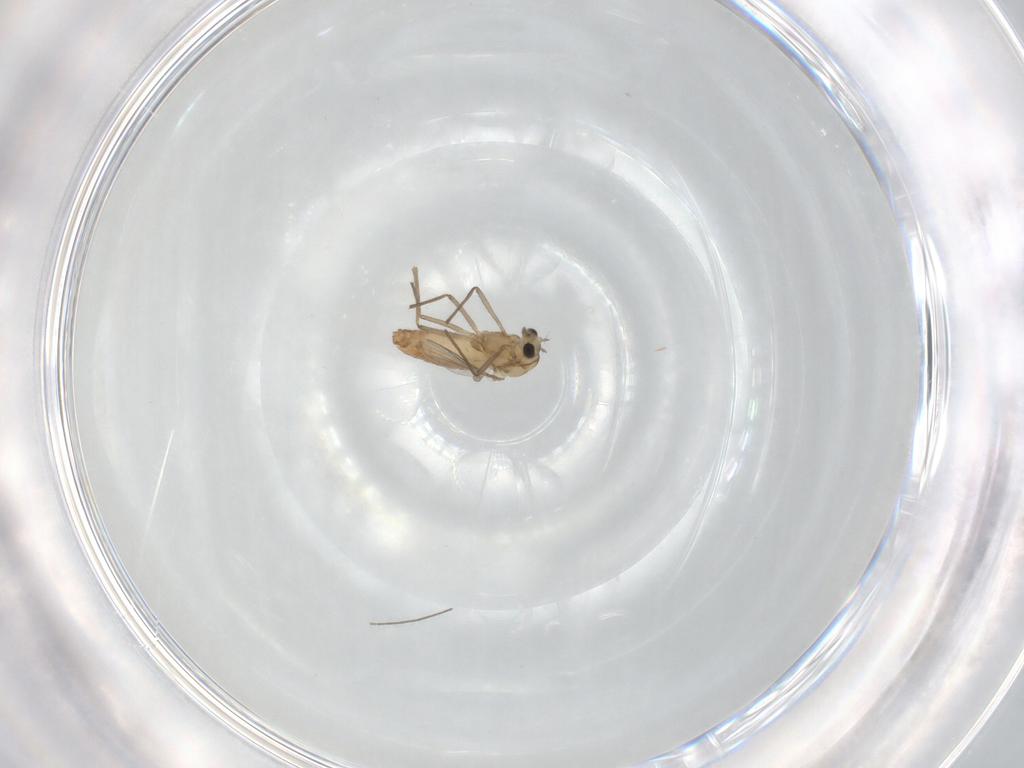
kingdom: Animalia
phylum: Arthropoda
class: Insecta
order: Diptera
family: Chironomidae
